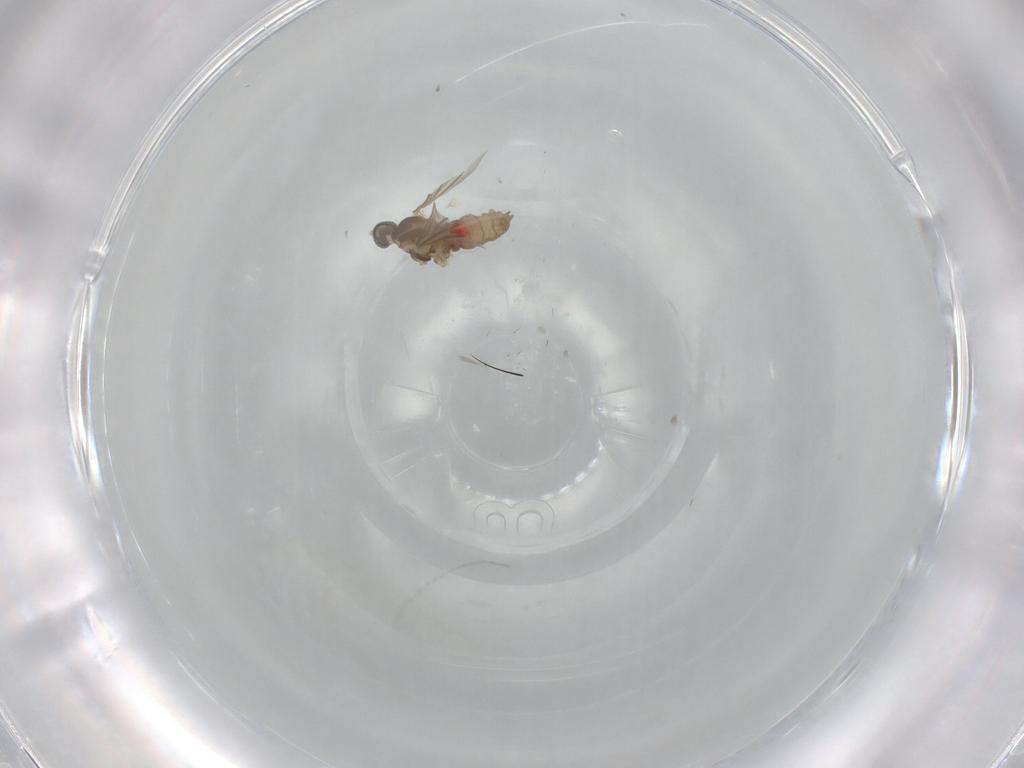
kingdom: Animalia
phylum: Arthropoda
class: Insecta
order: Diptera
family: Cecidomyiidae
